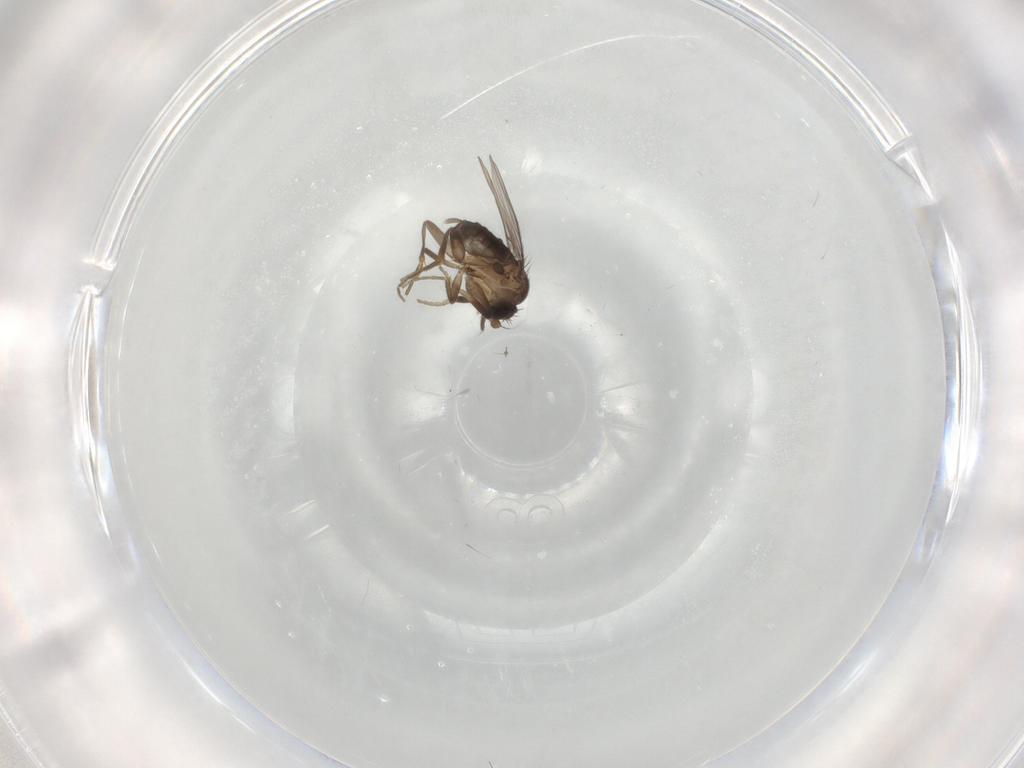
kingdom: Animalia
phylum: Arthropoda
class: Insecta
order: Diptera
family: Phoridae
